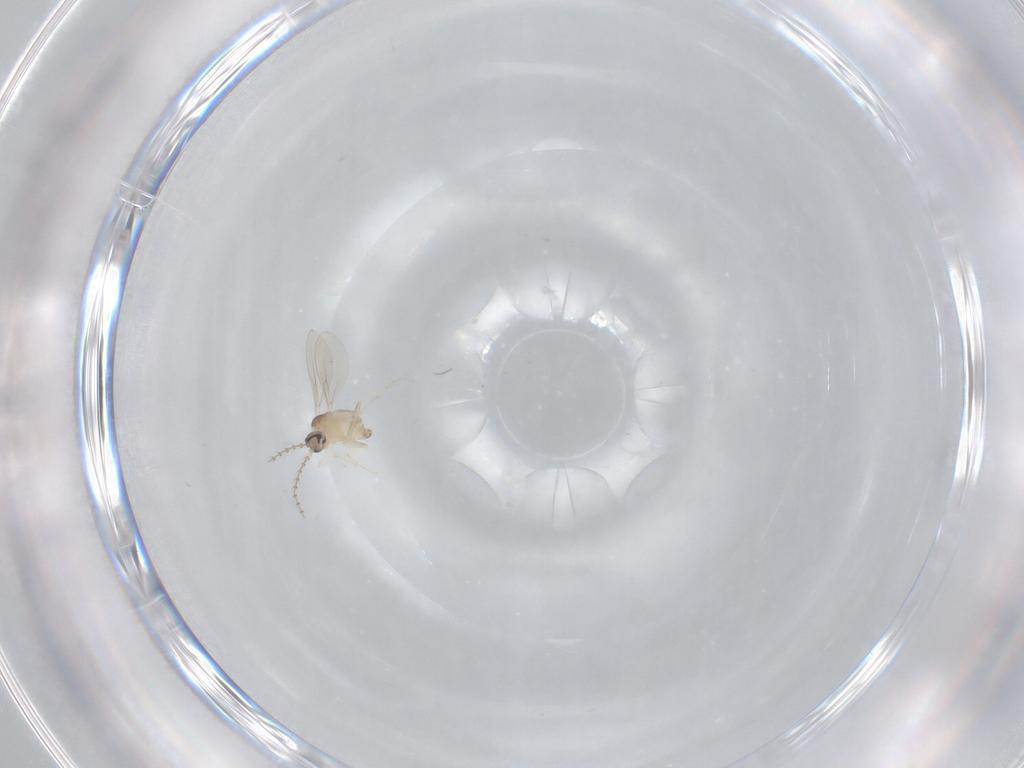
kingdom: Animalia
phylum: Arthropoda
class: Insecta
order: Diptera
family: Cecidomyiidae
